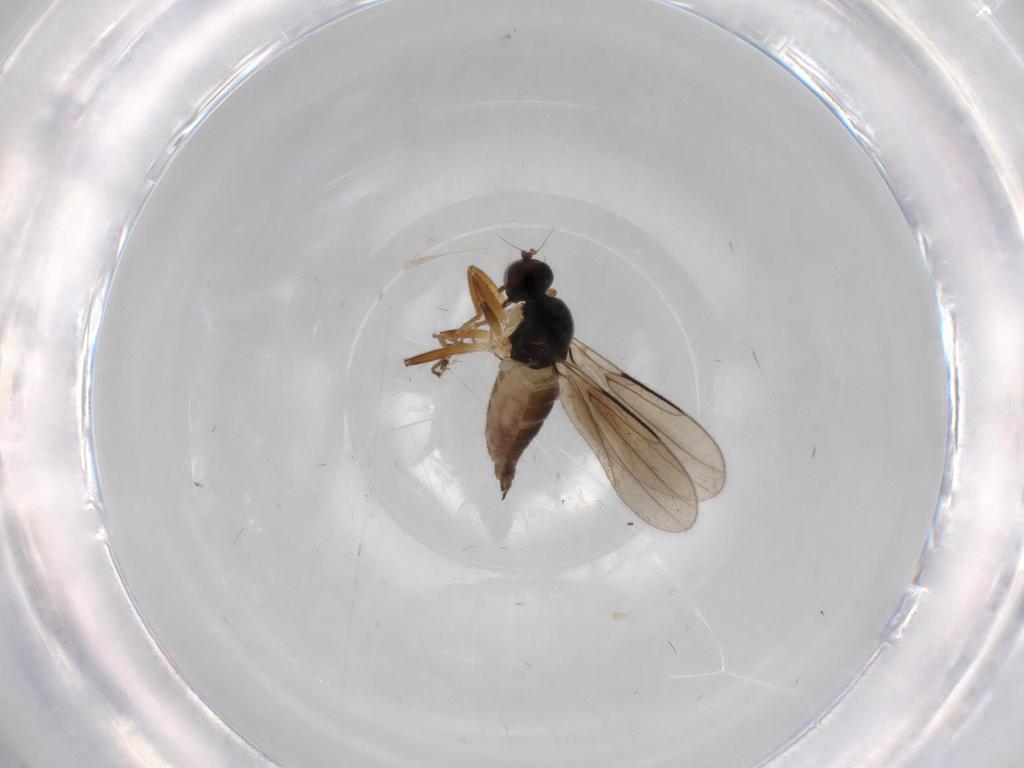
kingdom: Animalia
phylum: Arthropoda
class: Insecta
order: Diptera
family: Hybotidae
